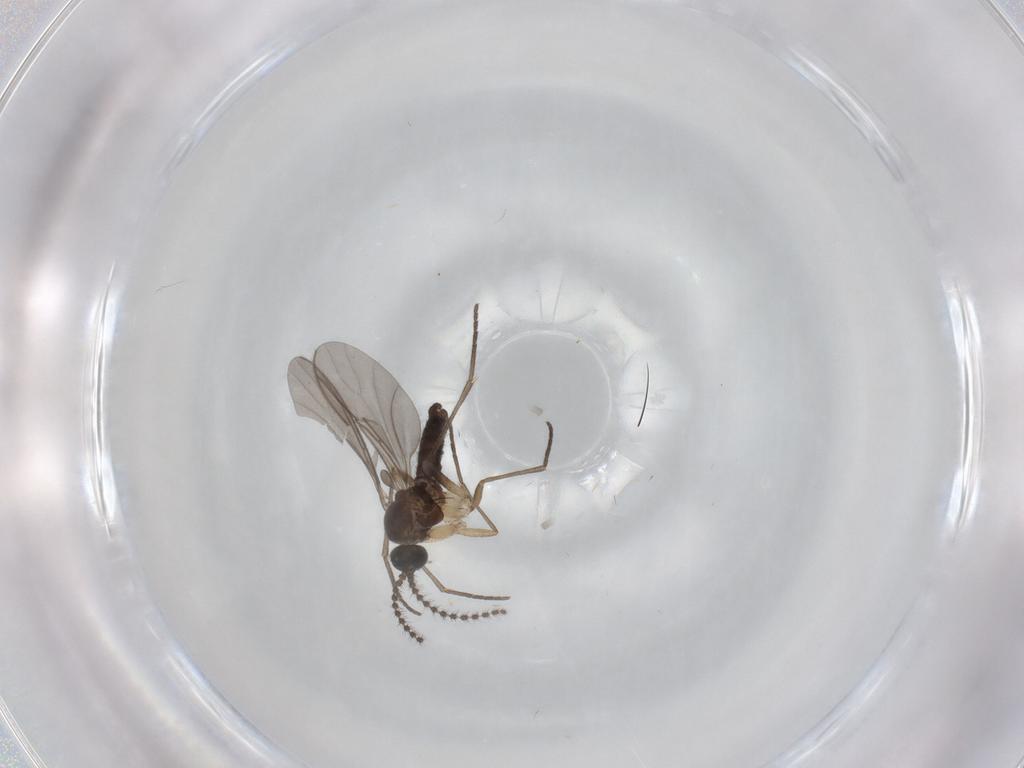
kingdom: Animalia
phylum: Arthropoda
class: Insecta
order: Diptera
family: Sciaridae
